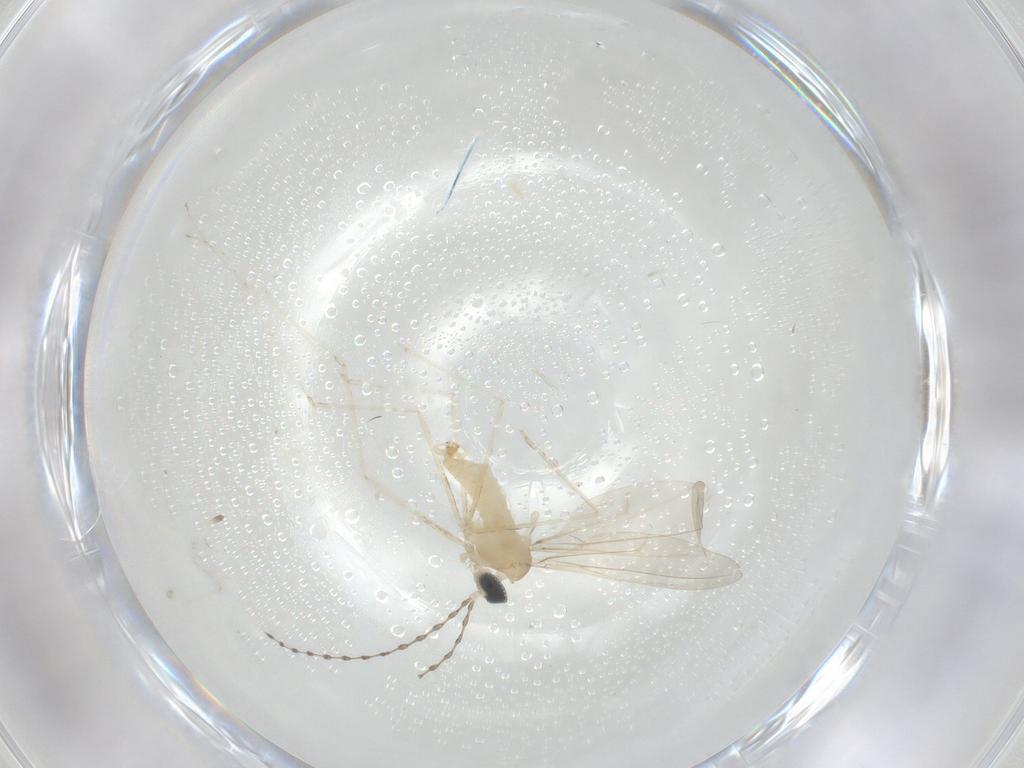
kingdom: Animalia
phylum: Arthropoda
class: Insecta
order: Diptera
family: Cecidomyiidae
